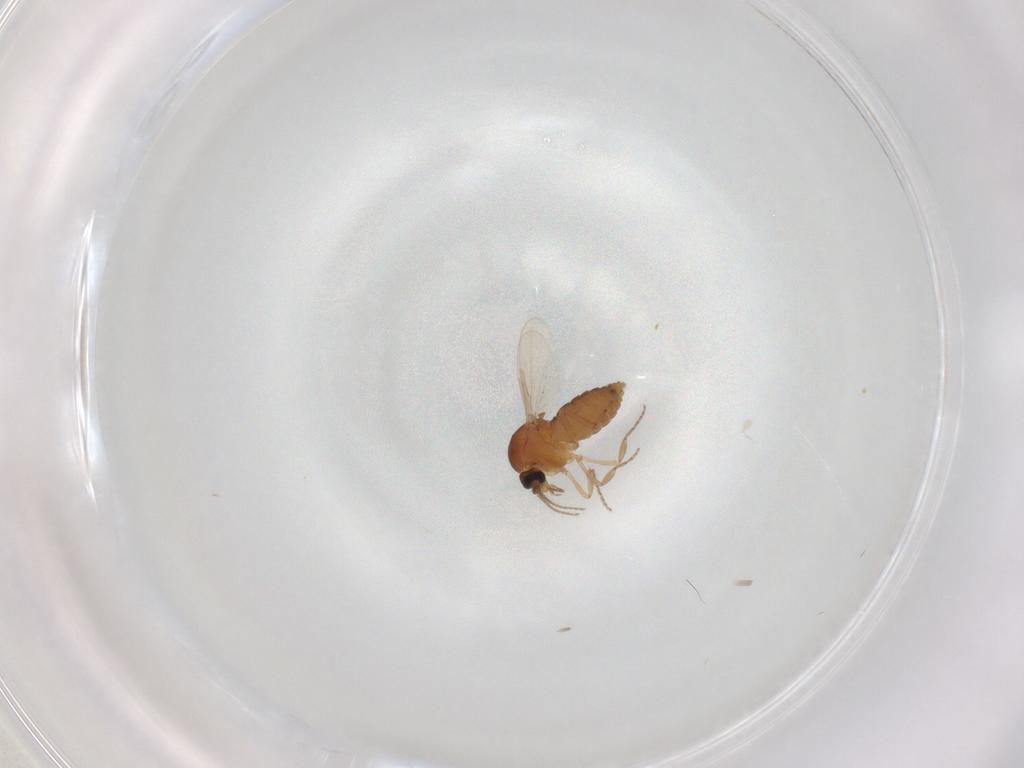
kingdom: Animalia
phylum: Arthropoda
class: Insecta
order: Diptera
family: Ceratopogonidae
